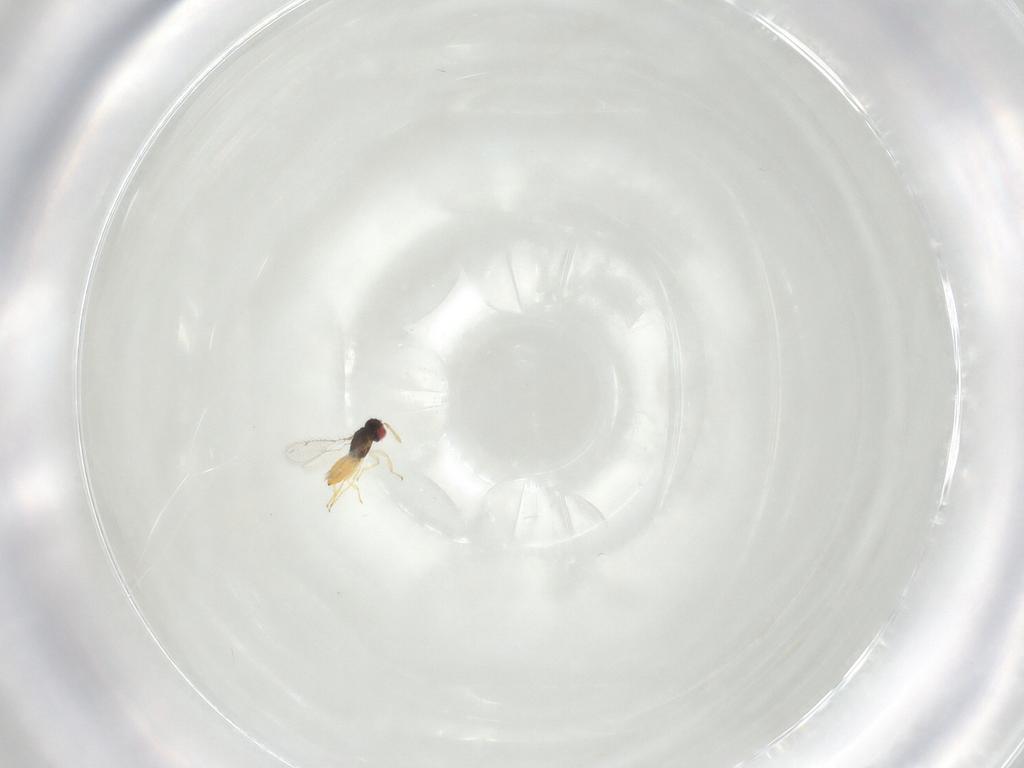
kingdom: Animalia
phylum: Arthropoda
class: Insecta
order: Hymenoptera
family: Eulophidae
